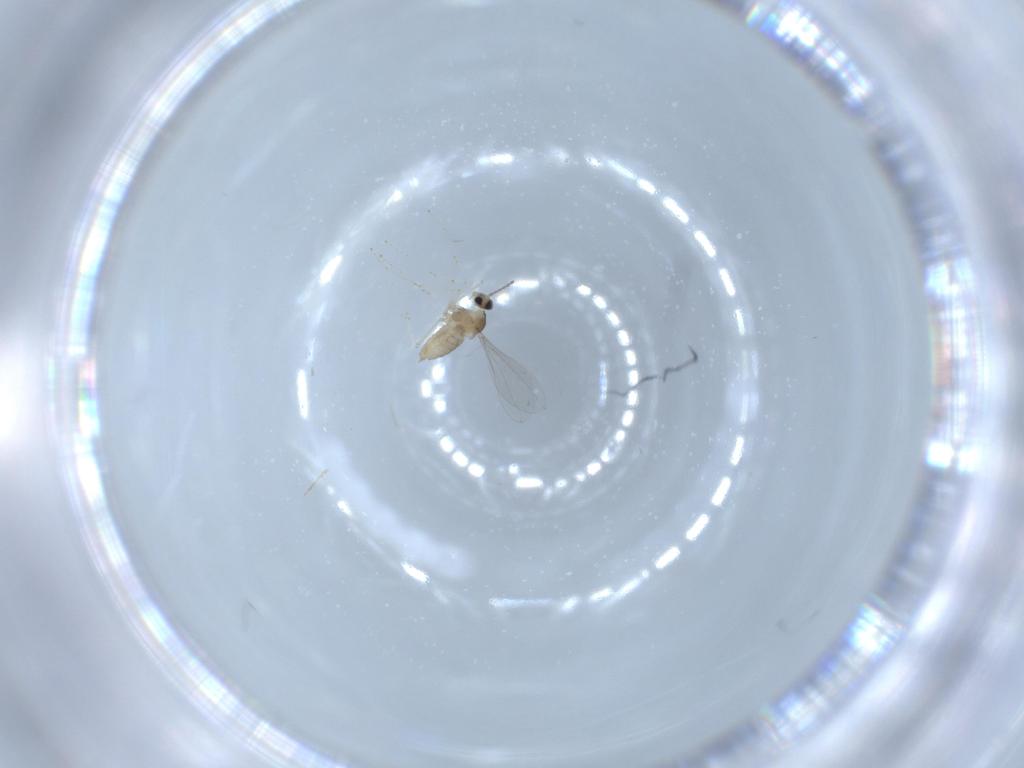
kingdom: Animalia
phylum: Arthropoda
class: Insecta
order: Diptera
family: Cecidomyiidae
